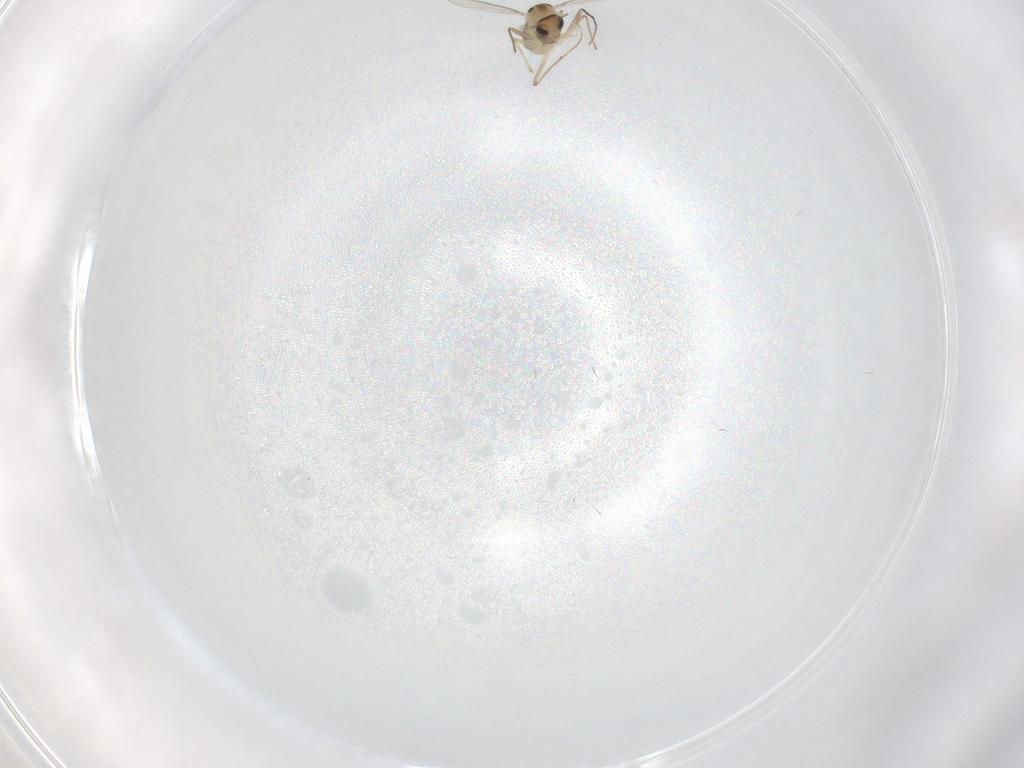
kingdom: Animalia
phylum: Arthropoda
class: Insecta
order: Diptera
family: Chironomidae
